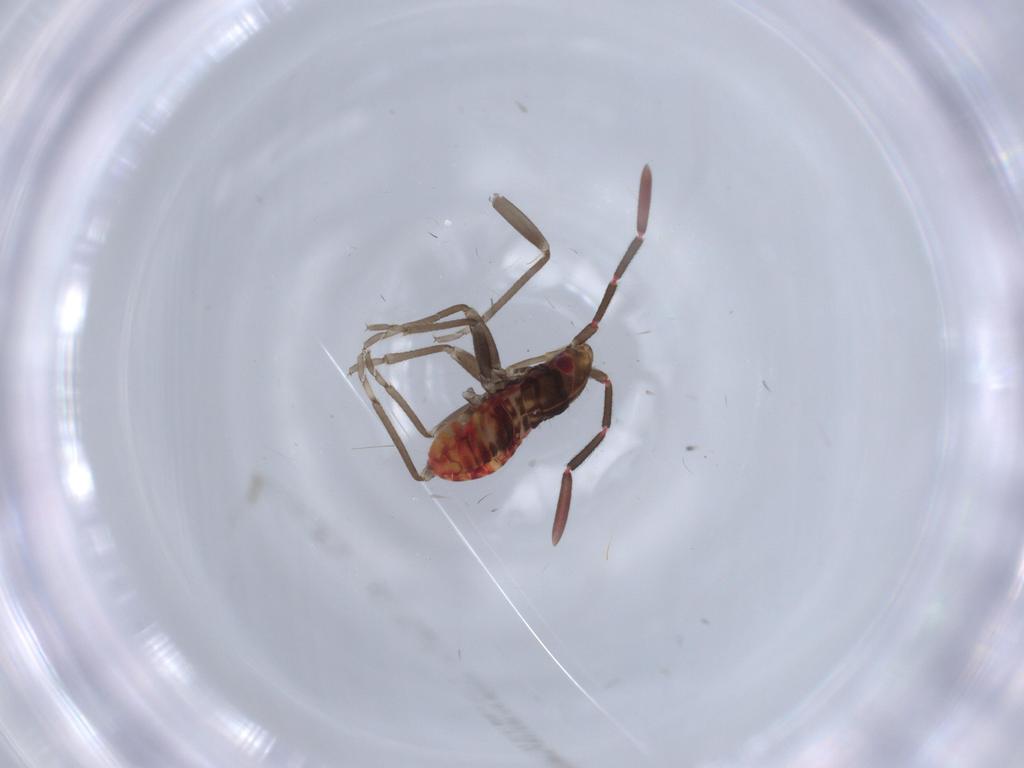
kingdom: Animalia
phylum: Arthropoda
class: Insecta
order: Hemiptera
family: Rhyparochromidae
